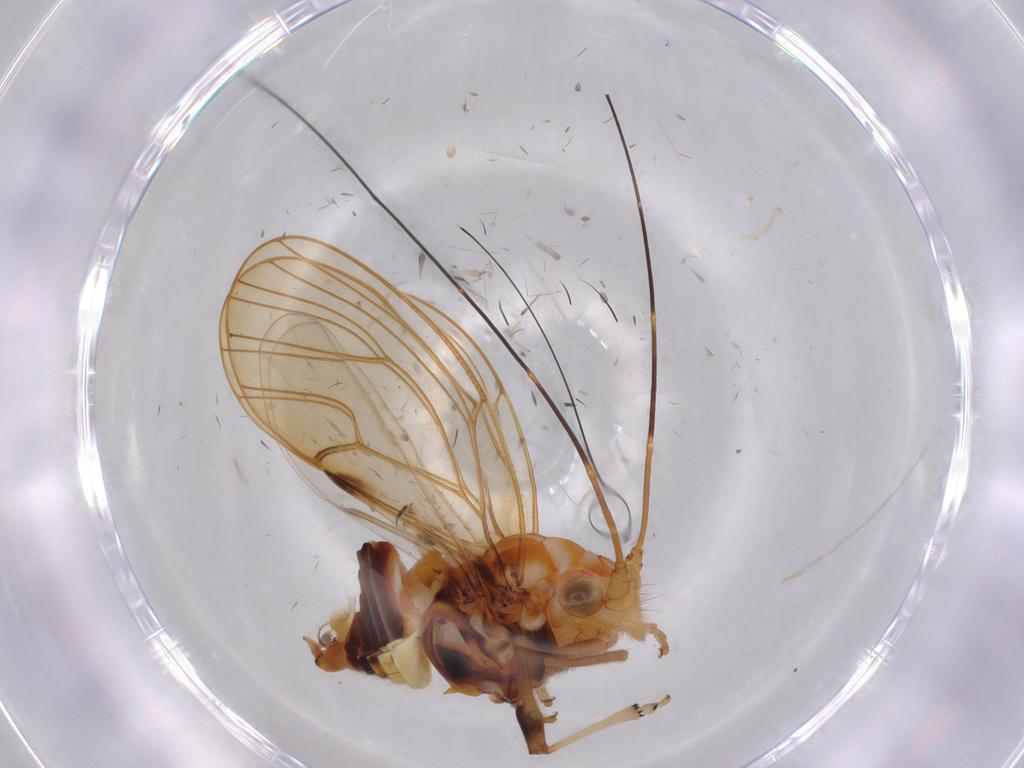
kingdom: Animalia
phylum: Arthropoda
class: Insecta
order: Hemiptera
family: Psyllidae
